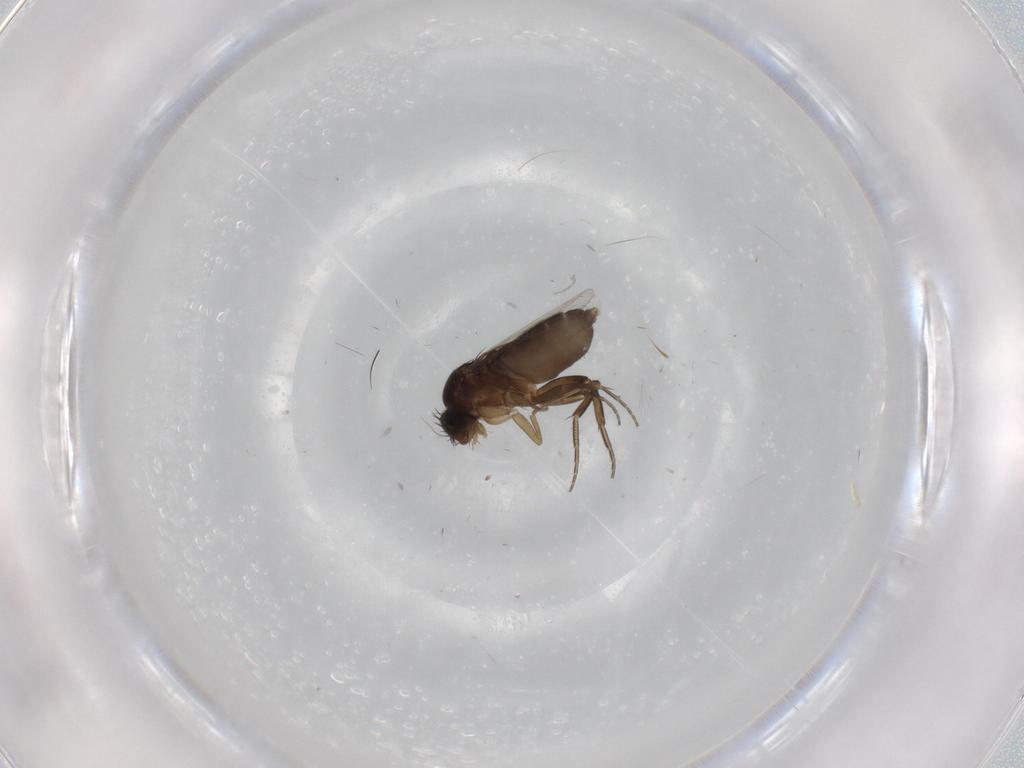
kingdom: Animalia
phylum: Arthropoda
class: Insecta
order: Diptera
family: Phoridae
